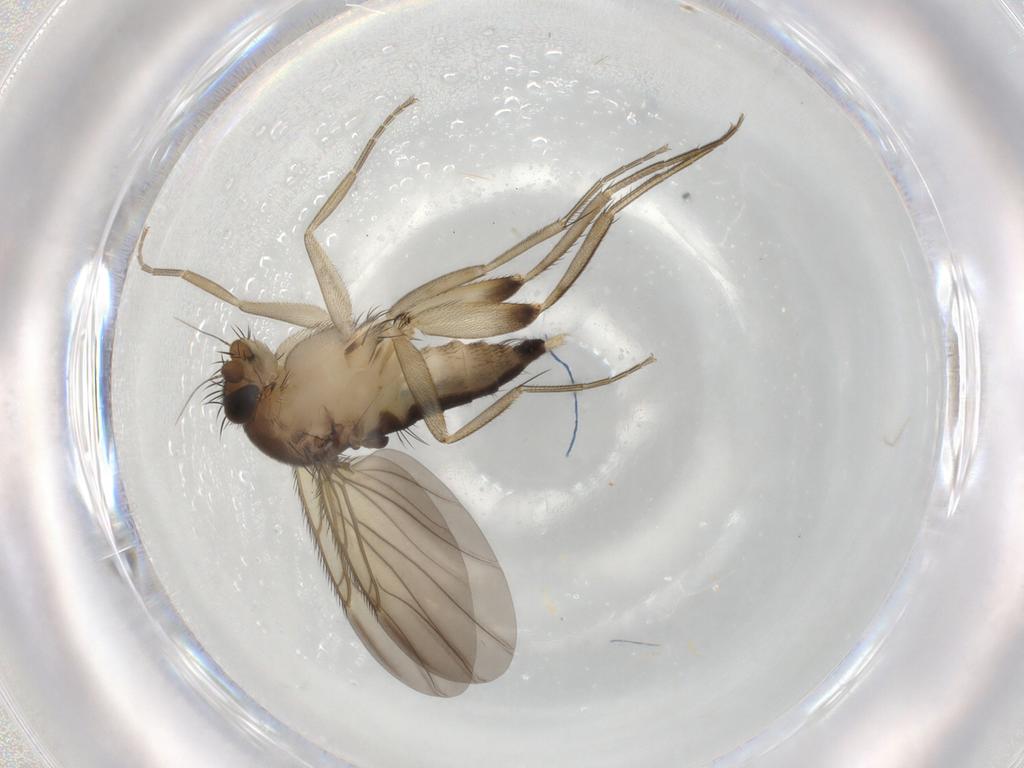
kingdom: Animalia
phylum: Arthropoda
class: Insecta
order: Diptera
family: Phoridae
